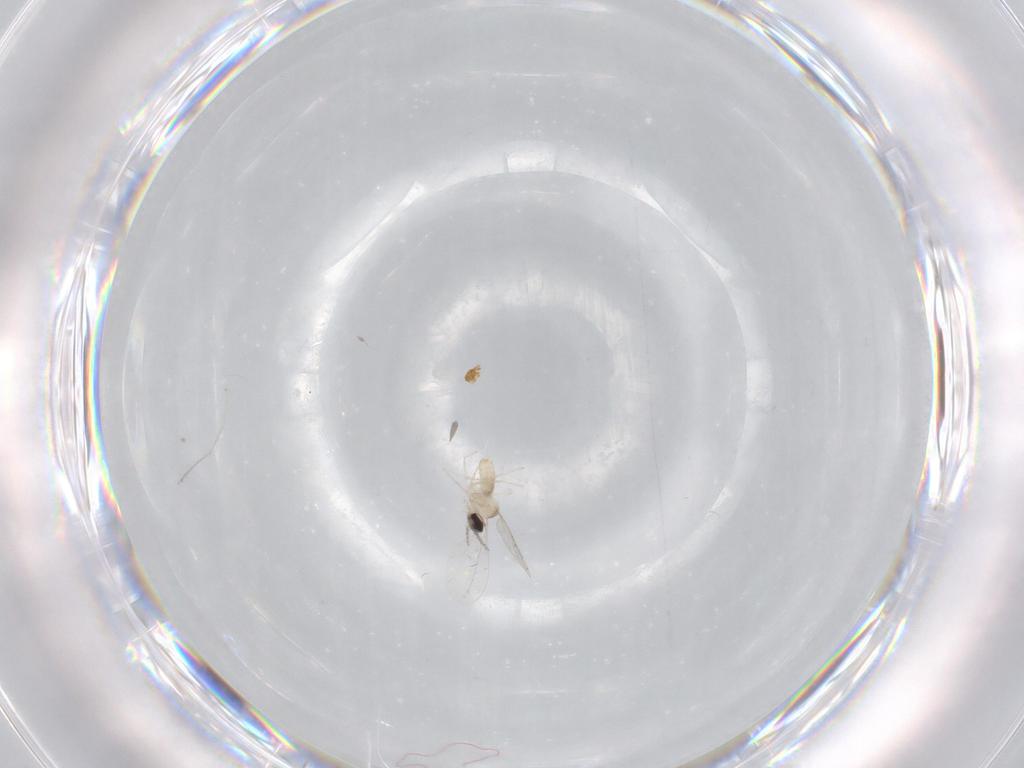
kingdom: Animalia
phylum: Arthropoda
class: Insecta
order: Diptera
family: Cecidomyiidae
